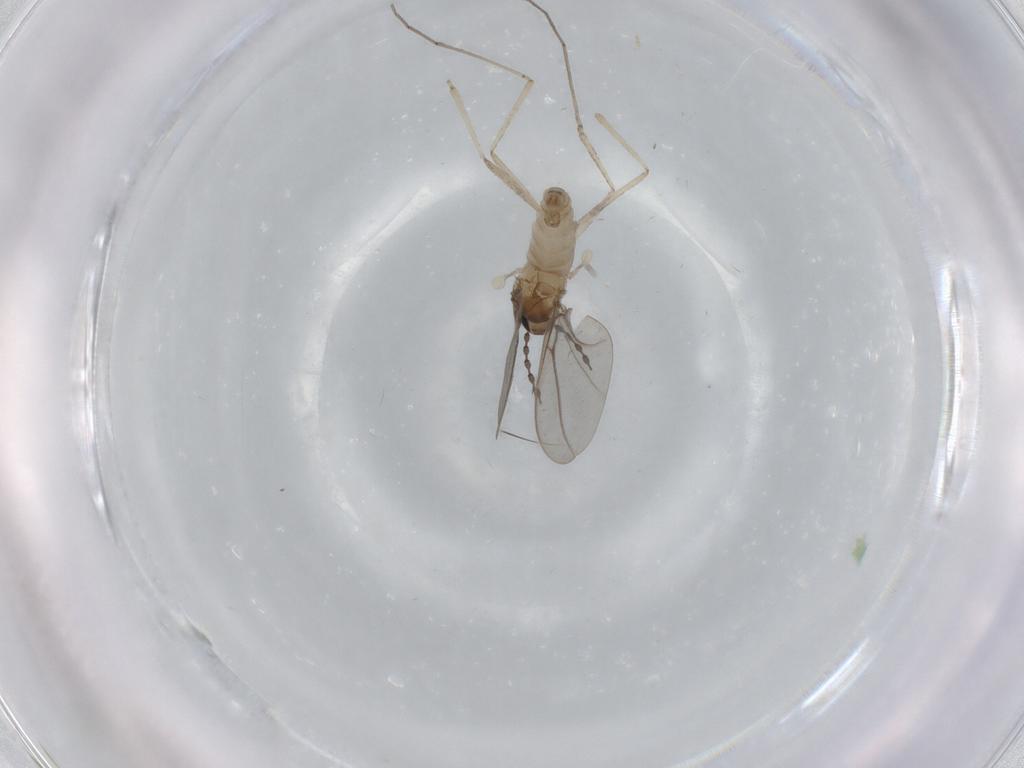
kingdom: Animalia
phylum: Arthropoda
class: Insecta
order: Diptera
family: Cecidomyiidae
